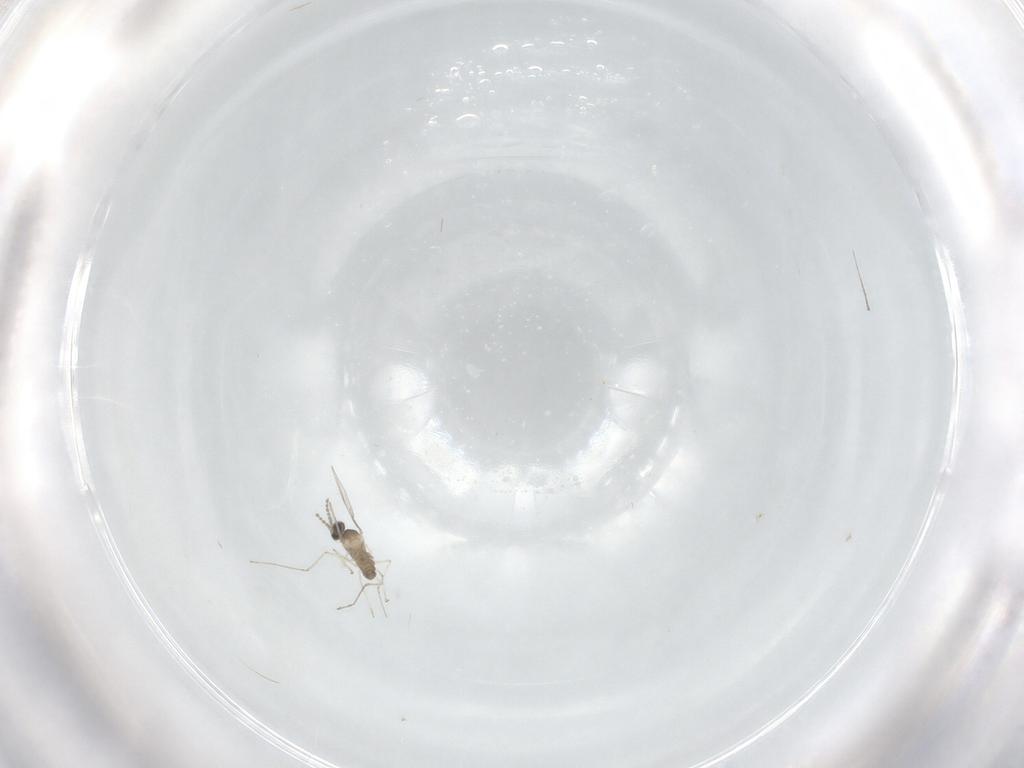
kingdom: Animalia
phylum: Arthropoda
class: Insecta
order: Diptera
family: Cecidomyiidae
